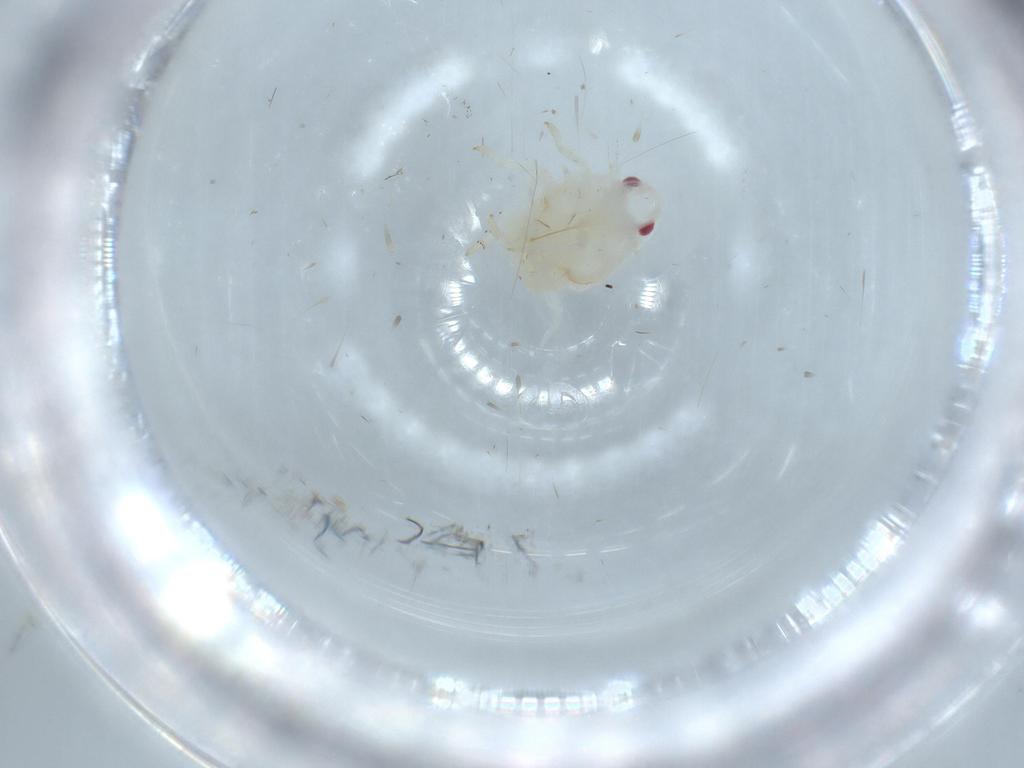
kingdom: Animalia
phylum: Arthropoda
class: Insecta
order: Hemiptera
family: Flatidae
